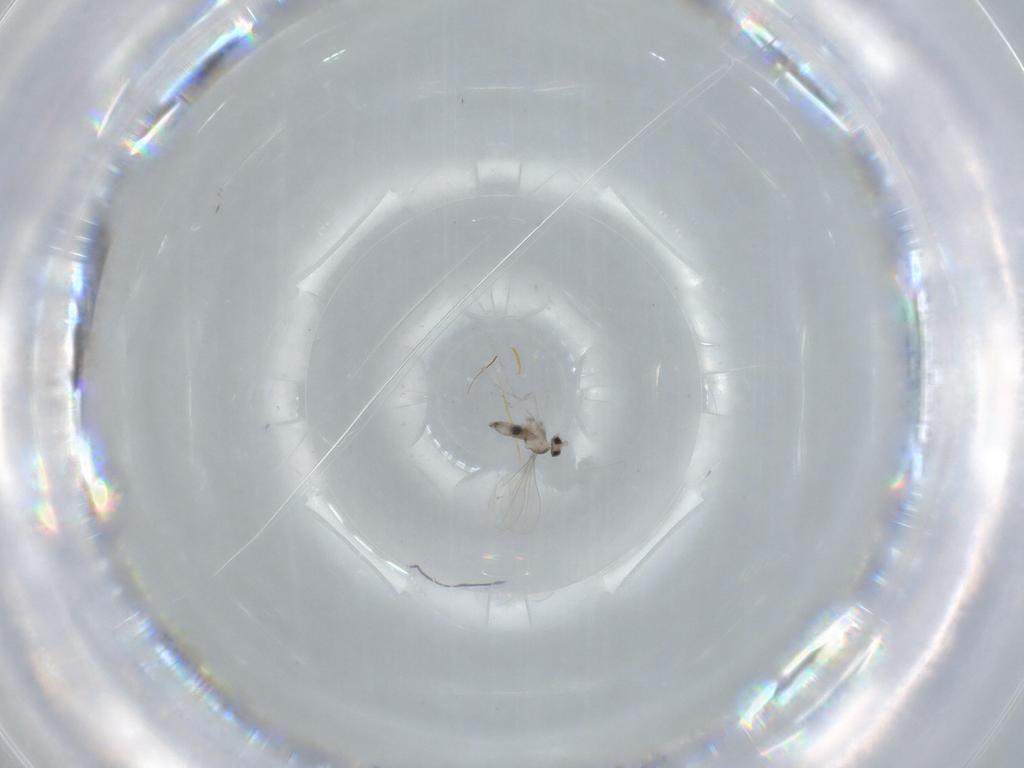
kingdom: Animalia
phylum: Arthropoda
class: Insecta
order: Diptera
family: Cecidomyiidae
